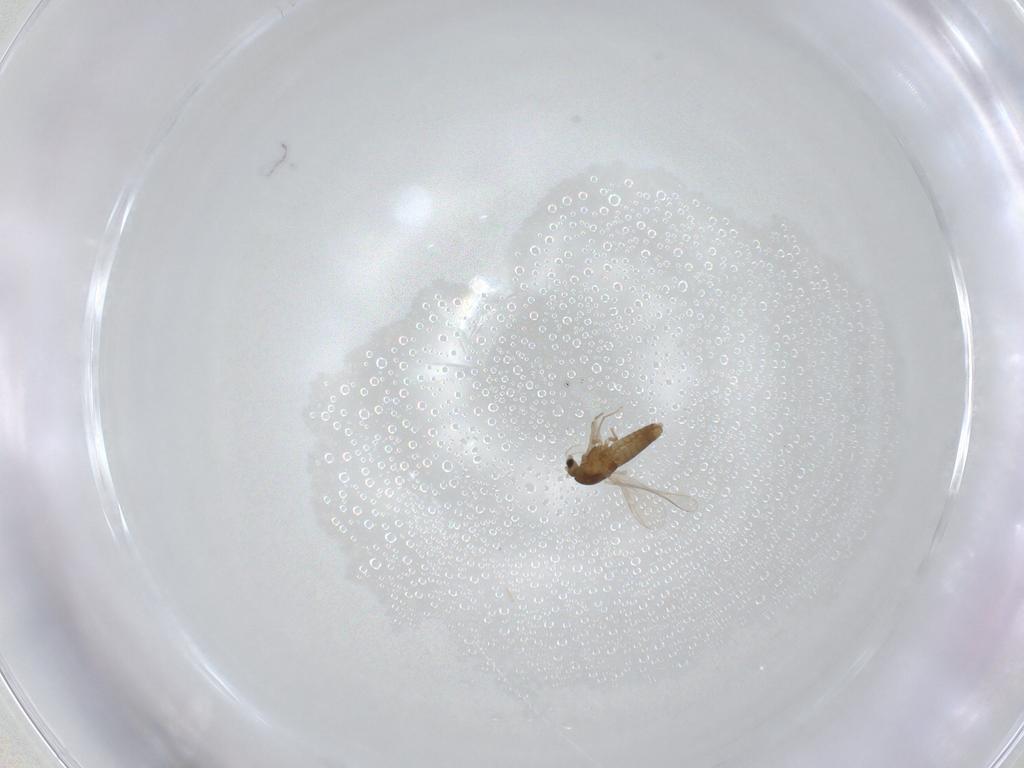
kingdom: Animalia
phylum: Arthropoda
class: Insecta
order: Diptera
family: Chironomidae
